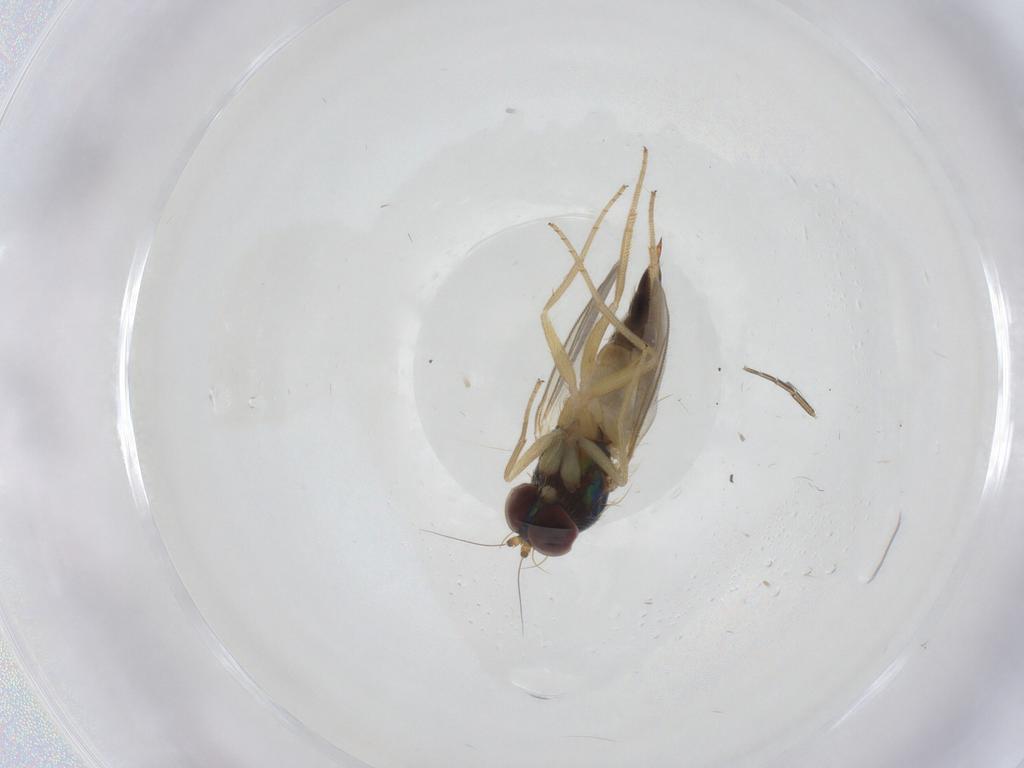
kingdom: Animalia
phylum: Arthropoda
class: Insecta
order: Diptera
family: Dolichopodidae
